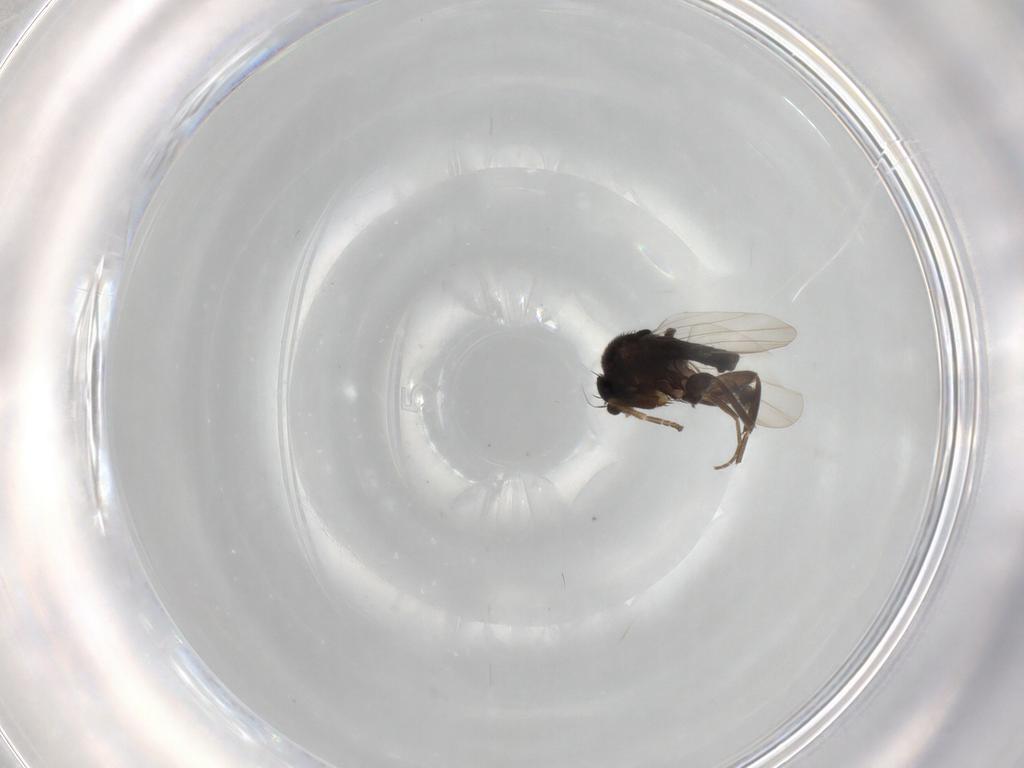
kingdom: Animalia
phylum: Arthropoda
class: Insecta
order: Diptera
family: Phoridae
